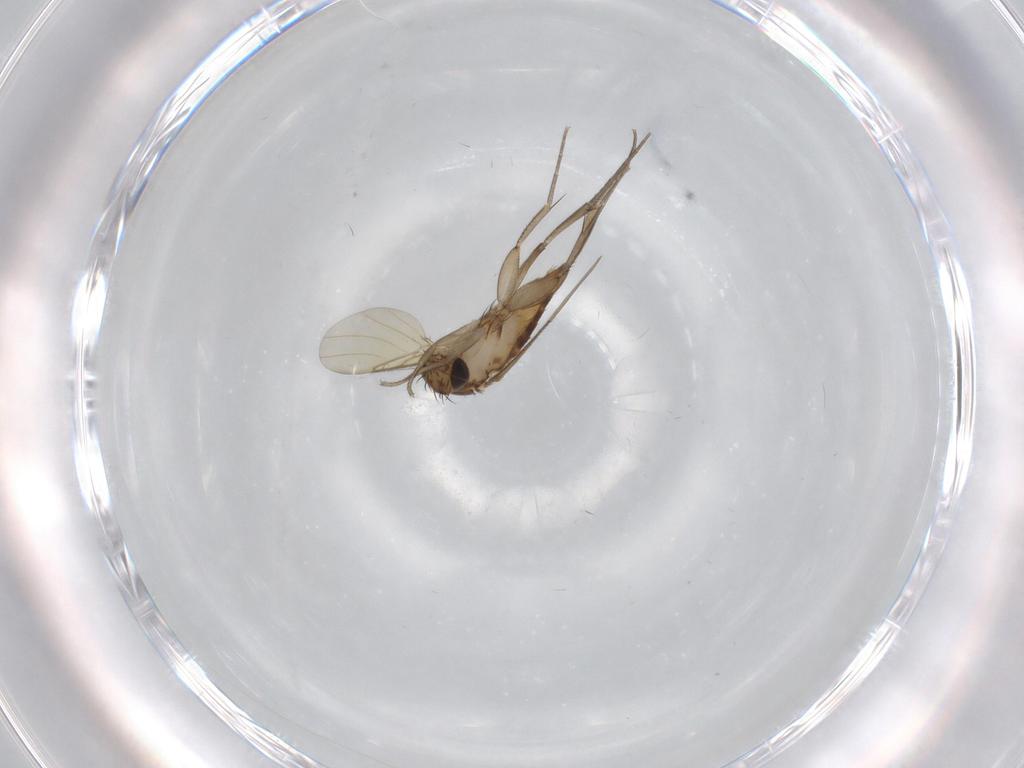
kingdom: Animalia
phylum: Arthropoda
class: Insecta
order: Diptera
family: Phoridae
